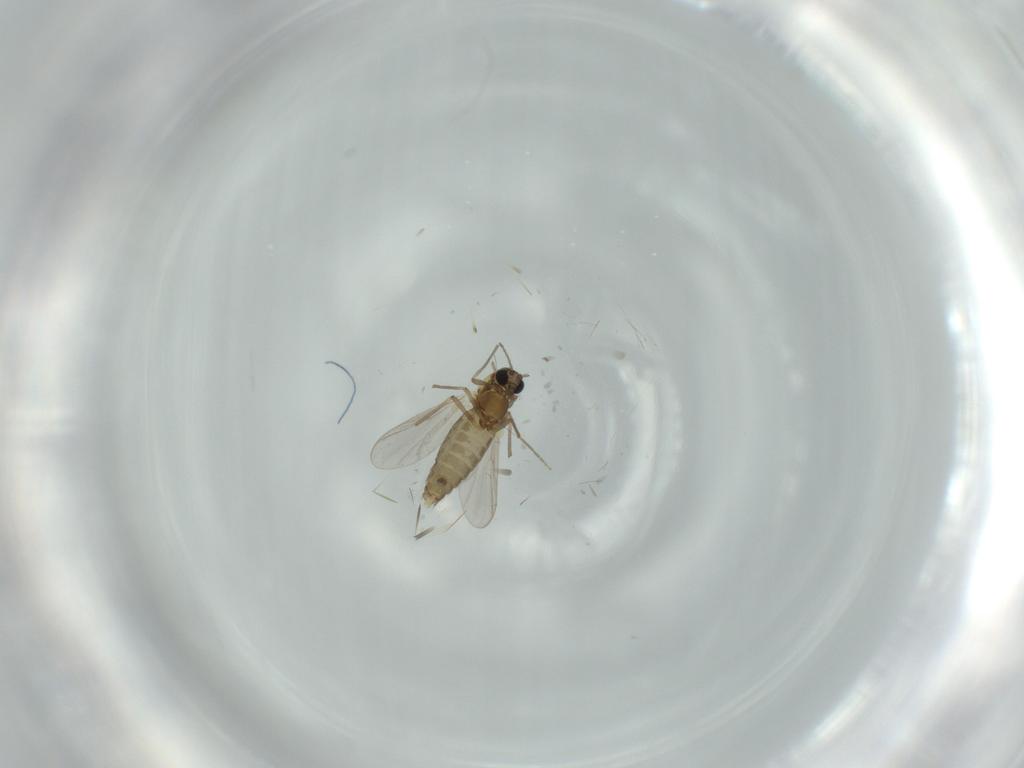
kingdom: Animalia
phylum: Arthropoda
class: Insecta
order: Diptera
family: Chironomidae
